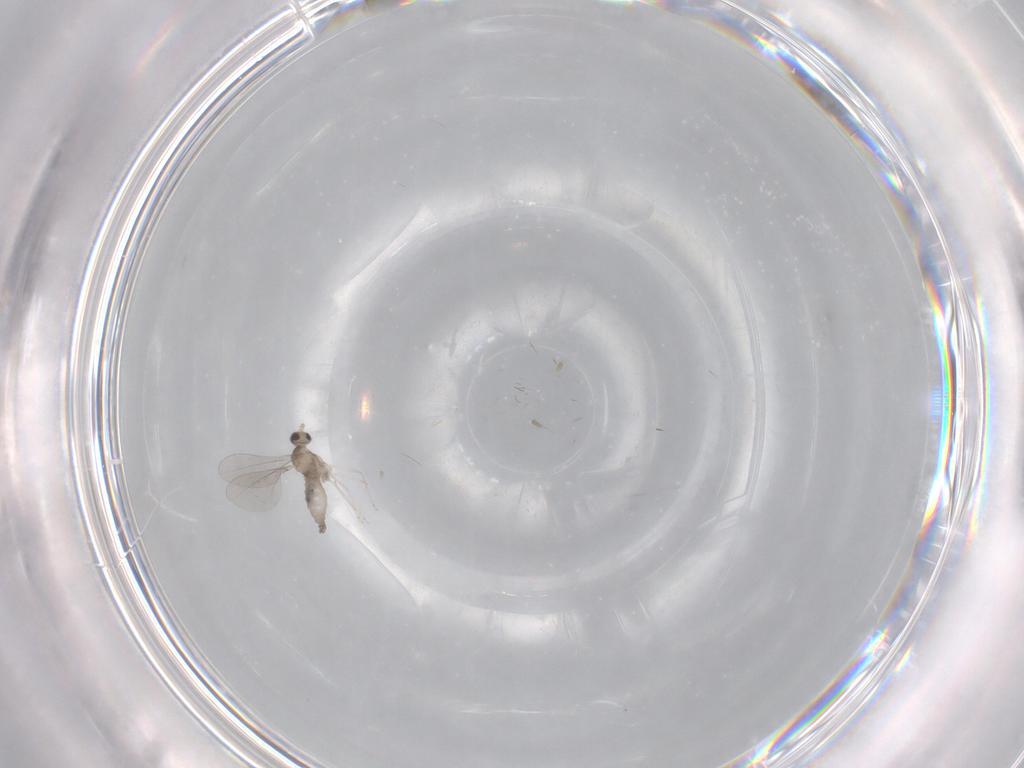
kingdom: Animalia
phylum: Arthropoda
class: Insecta
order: Diptera
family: Cecidomyiidae
